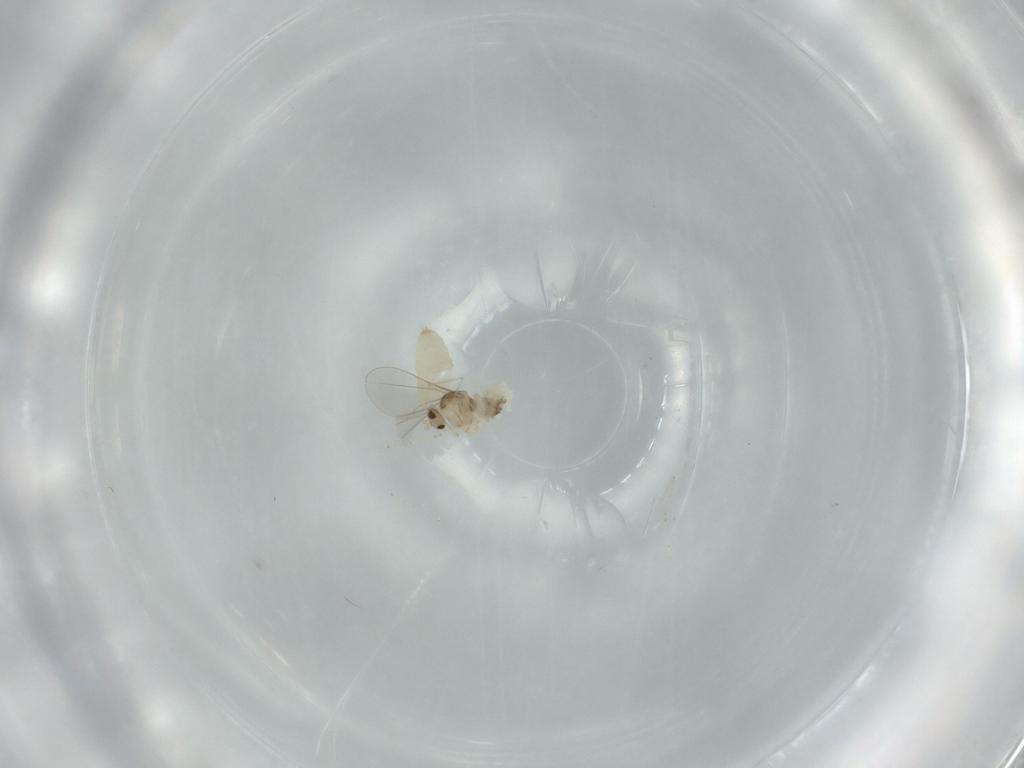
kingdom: Animalia
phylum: Arthropoda
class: Insecta
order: Diptera
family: Cecidomyiidae
